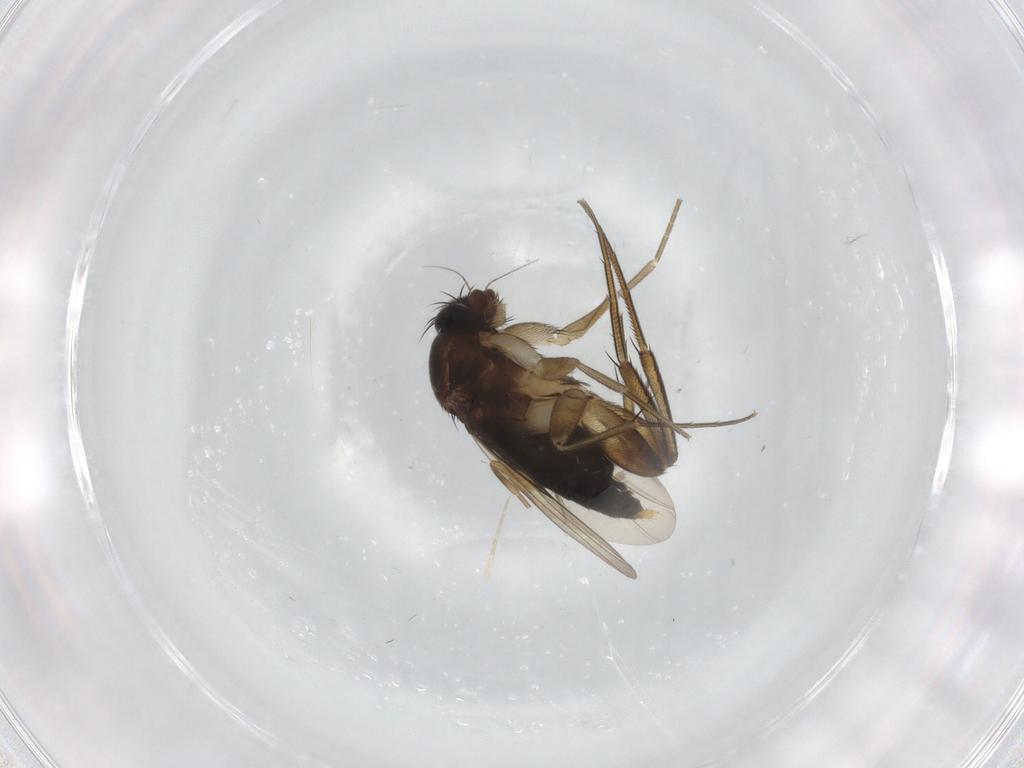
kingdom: Animalia
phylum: Arthropoda
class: Insecta
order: Diptera
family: Phoridae
